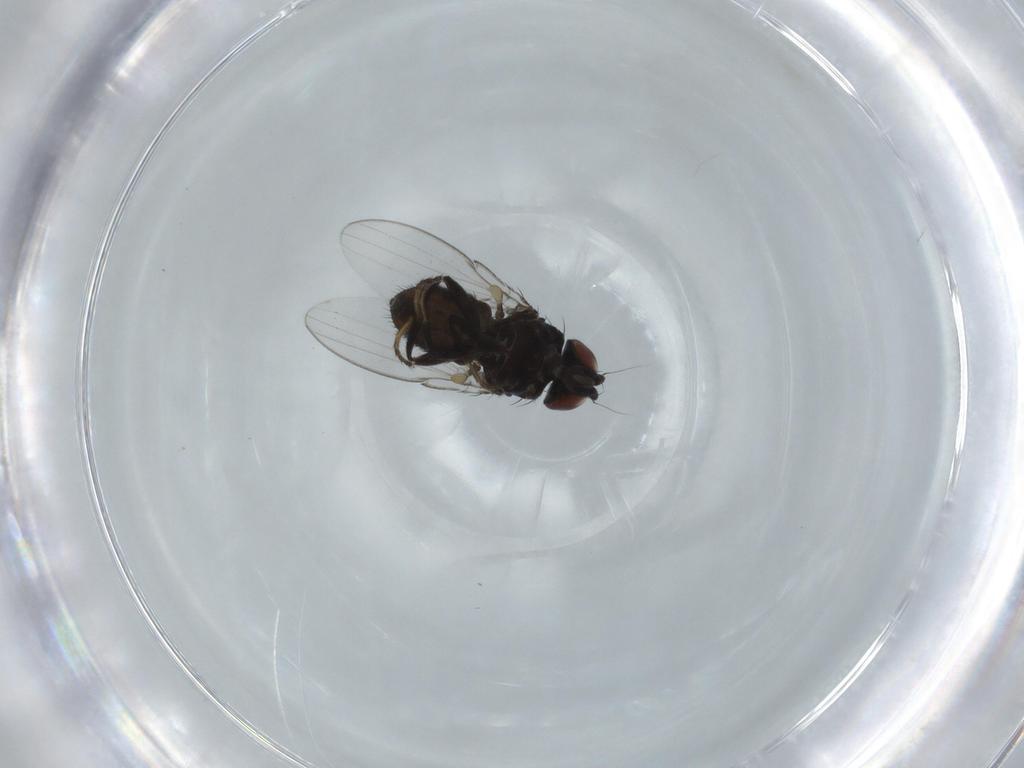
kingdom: Animalia
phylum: Arthropoda
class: Insecta
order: Diptera
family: Milichiidae
